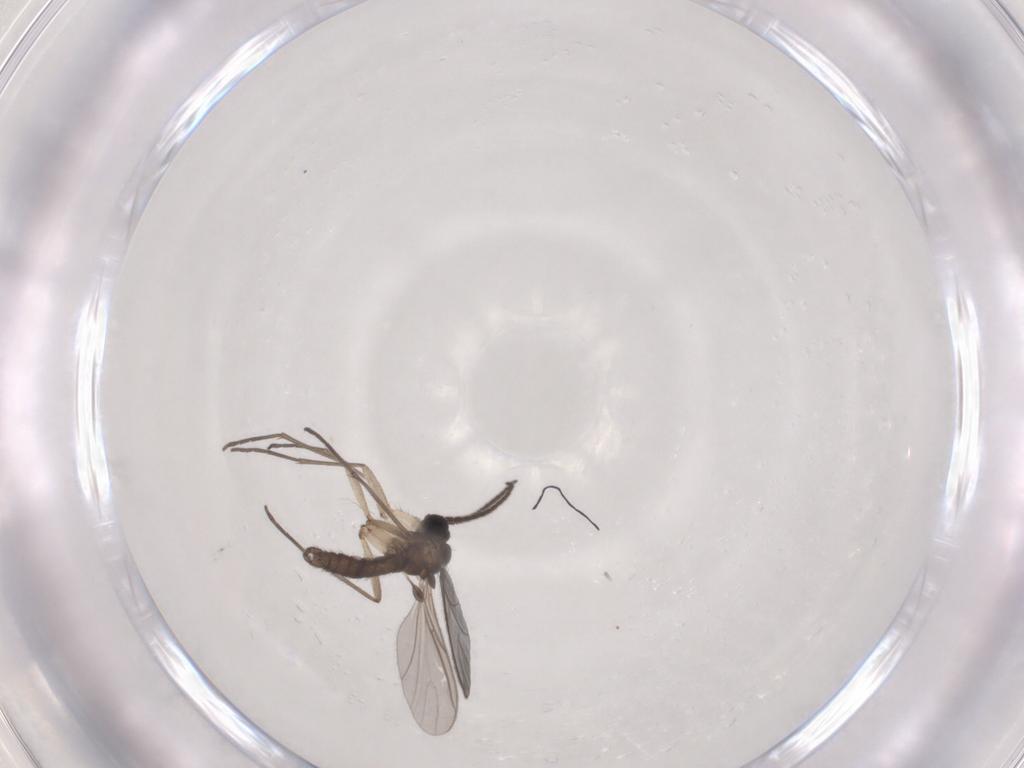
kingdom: Animalia
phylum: Arthropoda
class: Insecta
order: Diptera
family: Sciaridae
